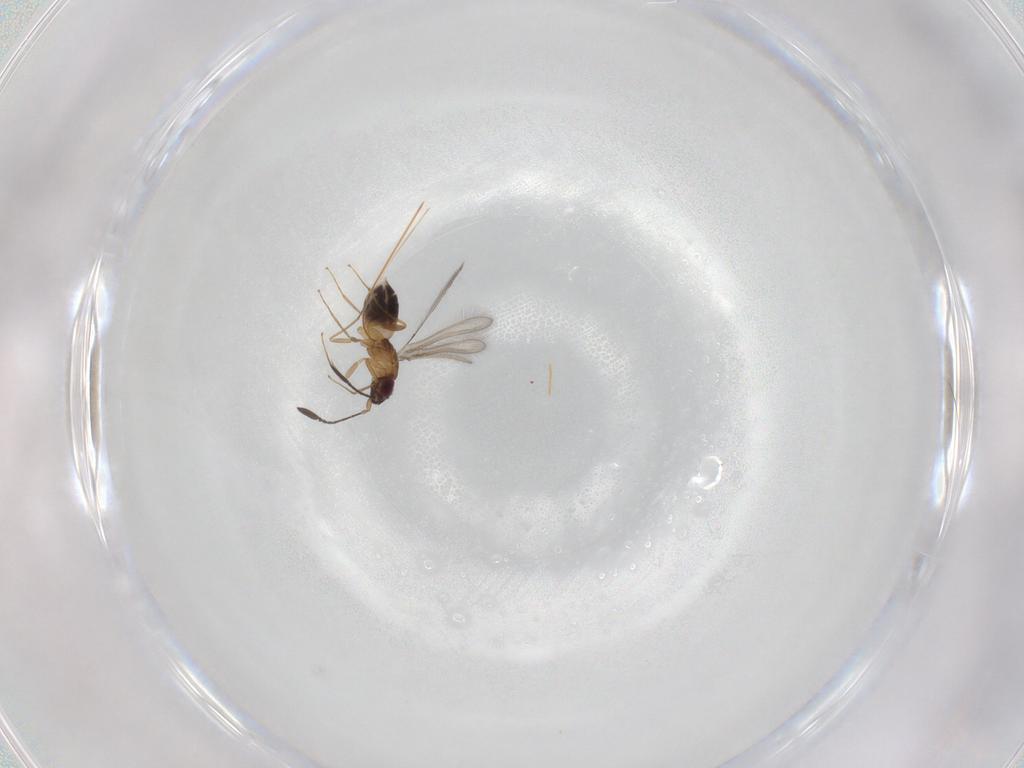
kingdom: Animalia
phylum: Arthropoda
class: Insecta
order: Hymenoptera
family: Mymaridae
